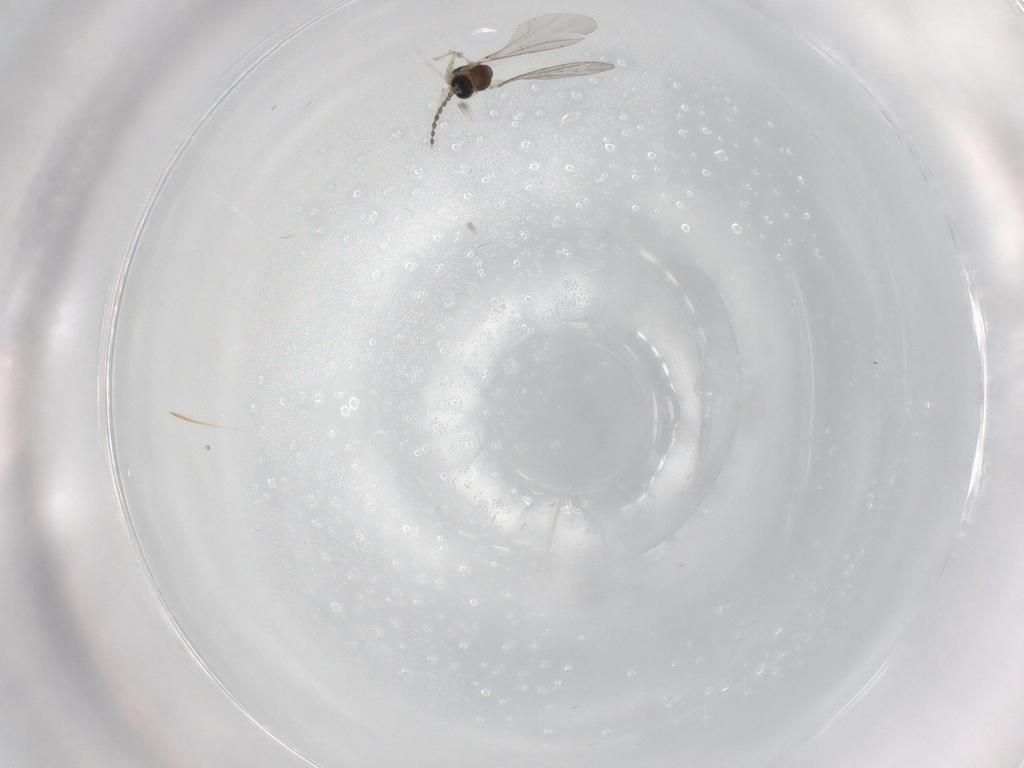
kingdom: Animalia
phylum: Arthropoda
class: Insecta
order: Diptera
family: Cecidomyiidae
